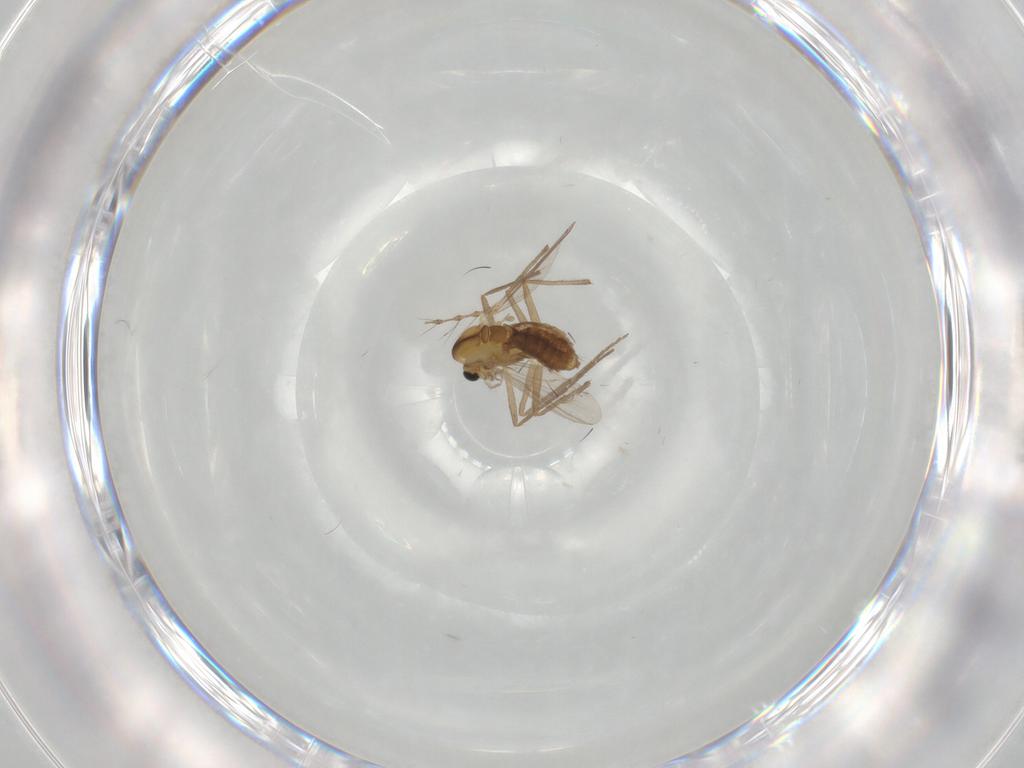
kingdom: Animalia
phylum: Arthropoda
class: Insecta
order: Diptera
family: Chironomidae
